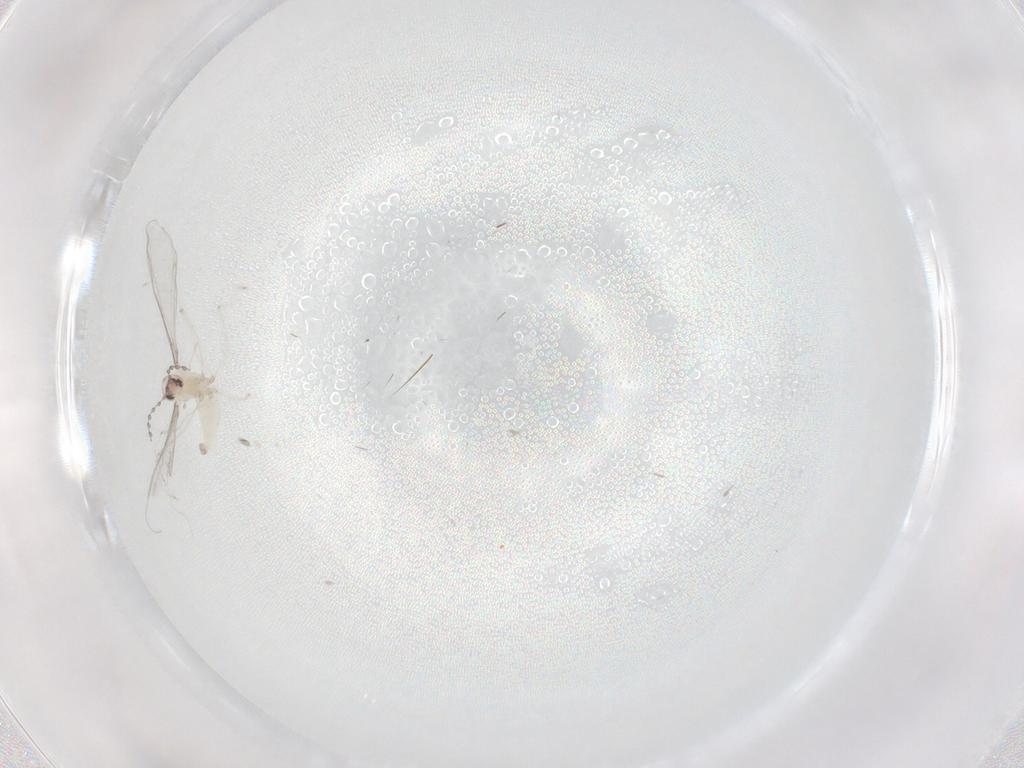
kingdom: Animalia
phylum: Arthropoda
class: Insecta
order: Diptera
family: Cecidomyiidae
